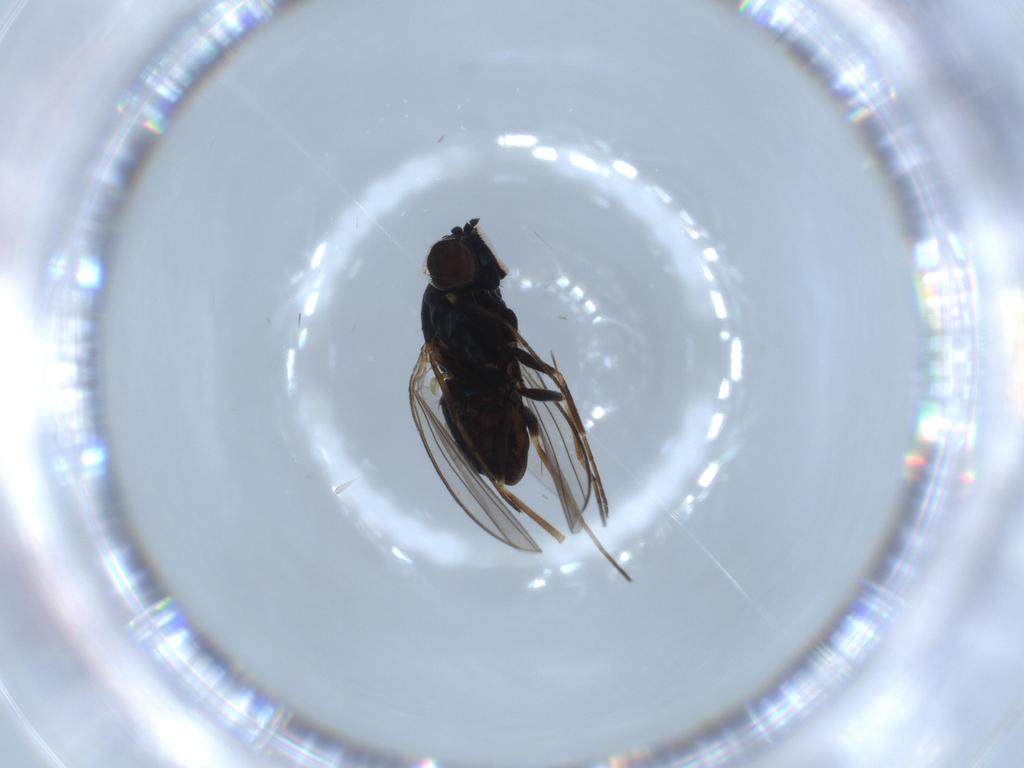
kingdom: Animalia
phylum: Arthropoda
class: Insecta
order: Diptera
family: Dolichopodidae
